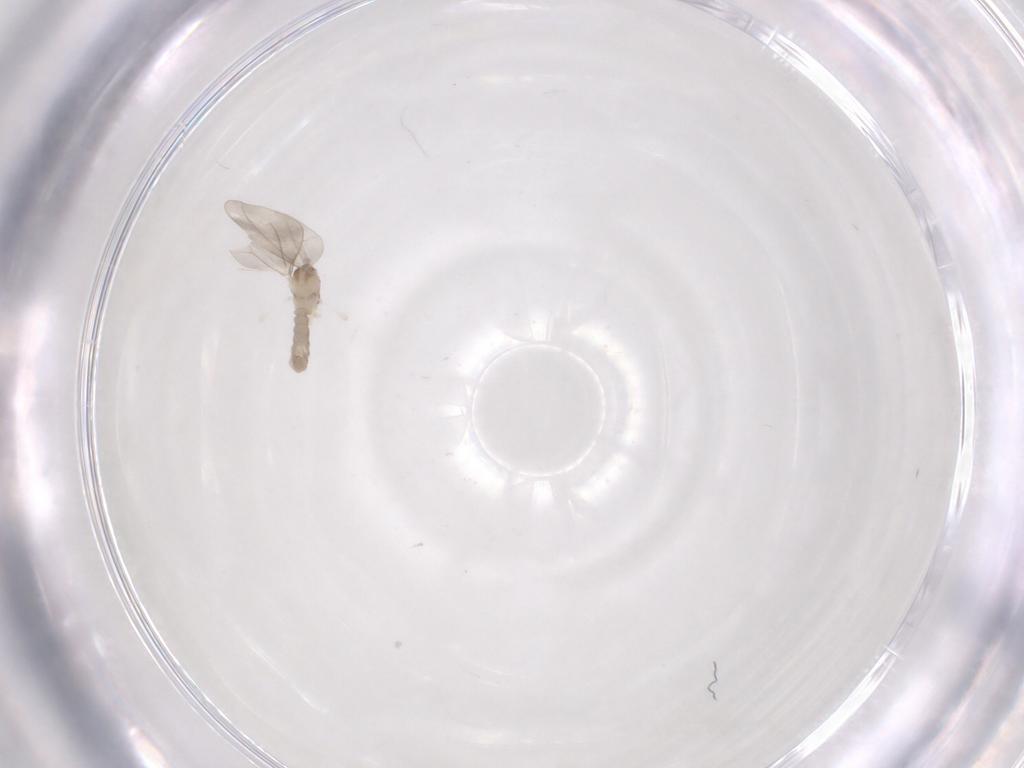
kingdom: Animalia
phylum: Arthropoda
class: Insecta
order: Diptera
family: Cecidomyiidae
